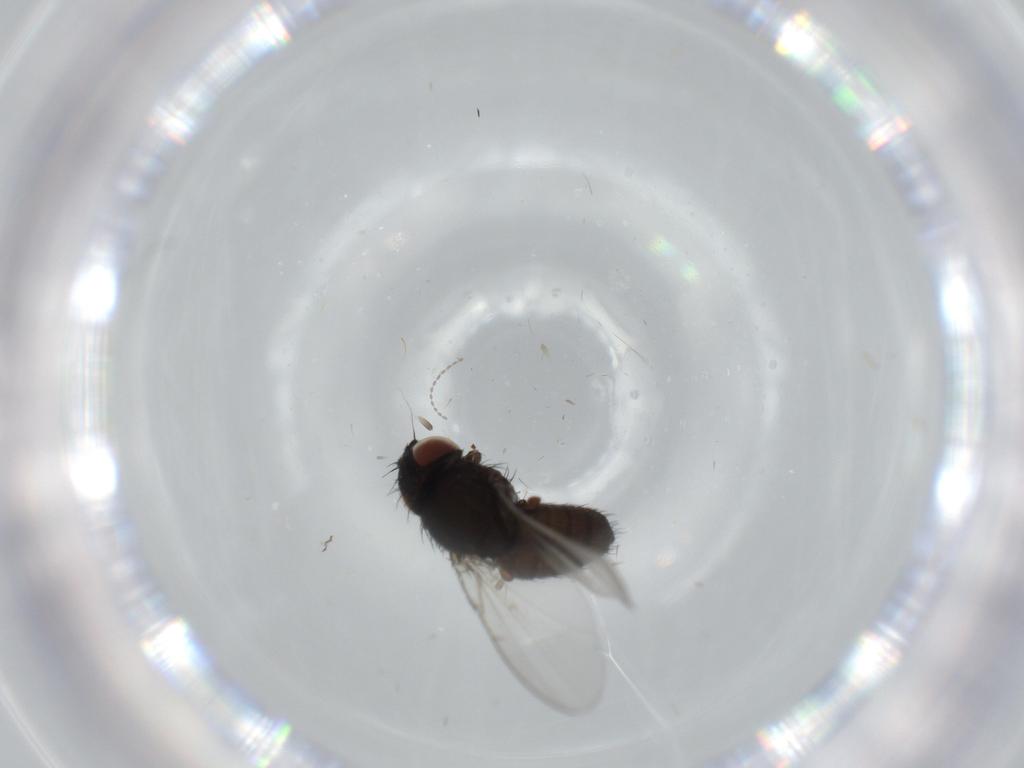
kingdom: Animalia
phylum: Arthropoda
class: Insecta
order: Diptera
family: Milichiidae
